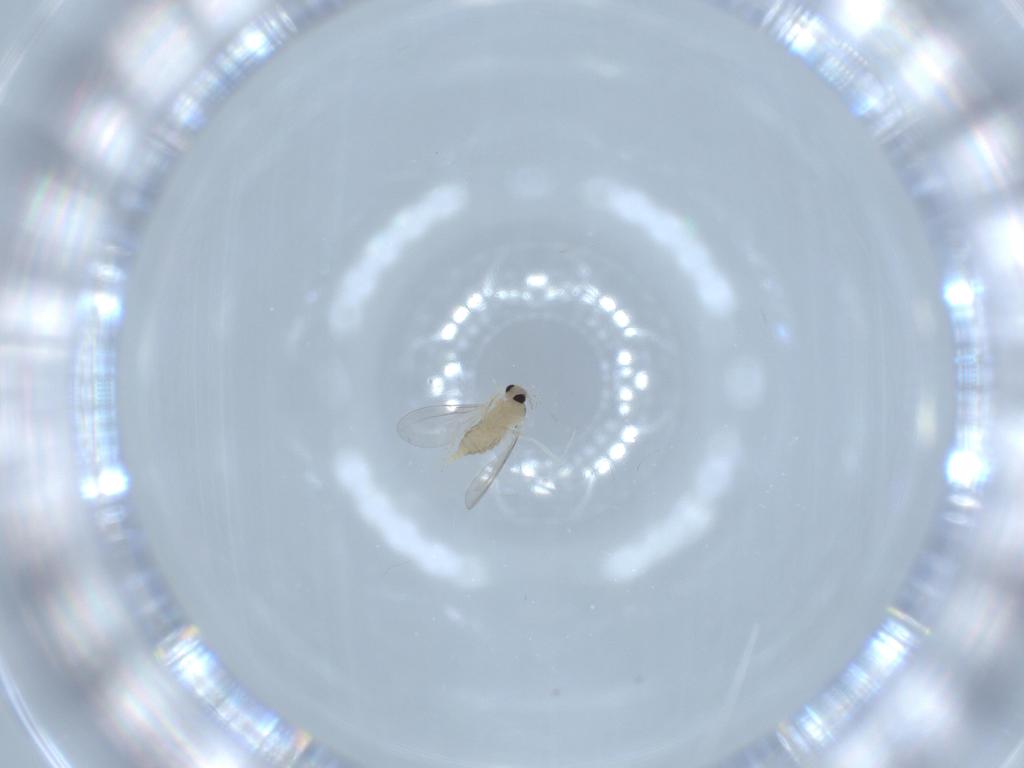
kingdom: Animalia
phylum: Arthropoda
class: Insecta
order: Diptera
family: Cecidomyiidae
